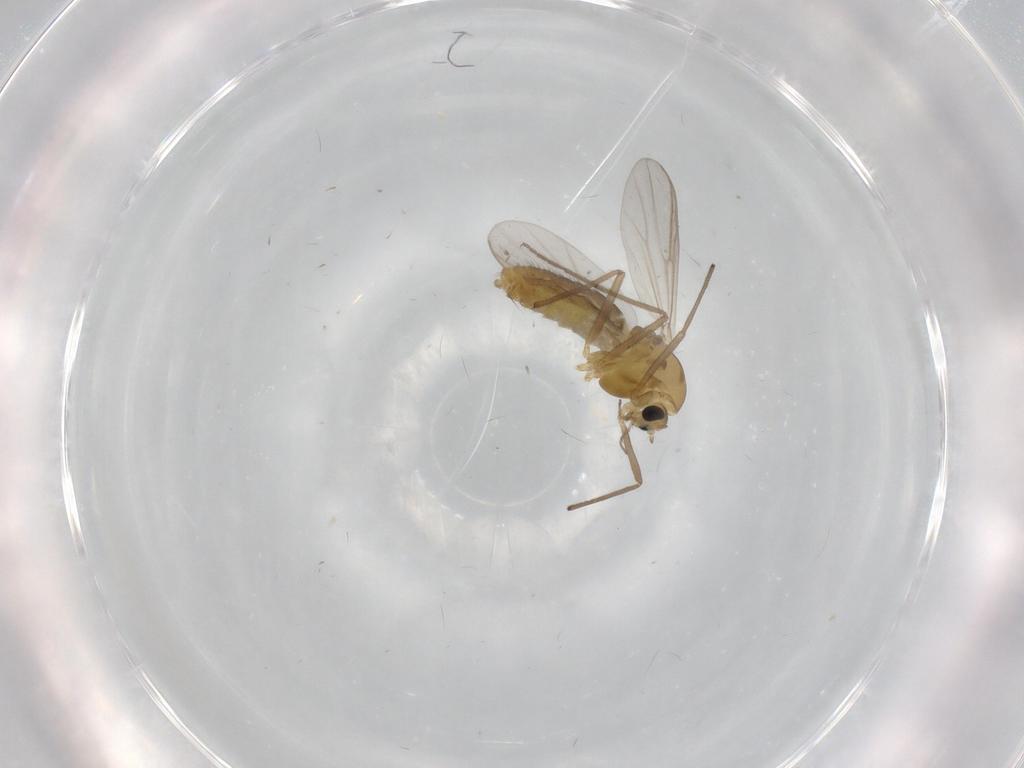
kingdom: Animalia
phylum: Arthropoda
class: Insecta
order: Diptera
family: Chironomidae
